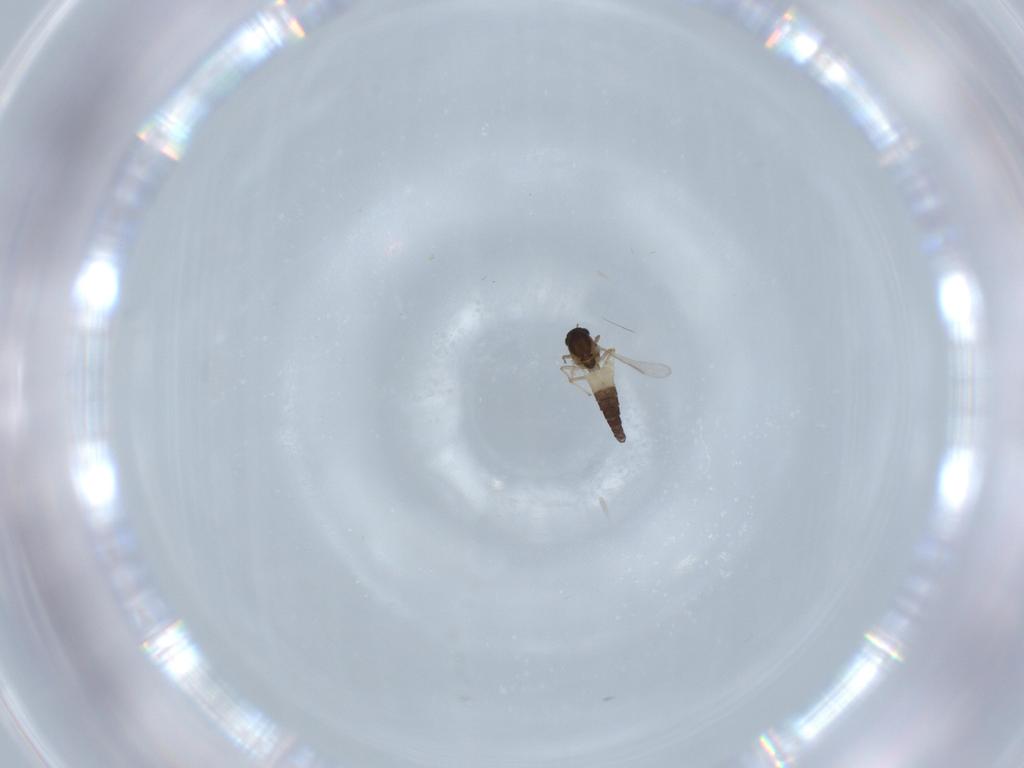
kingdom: Animalia
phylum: Arthropoda
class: Insecta
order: Diptera
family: Chironomidae
